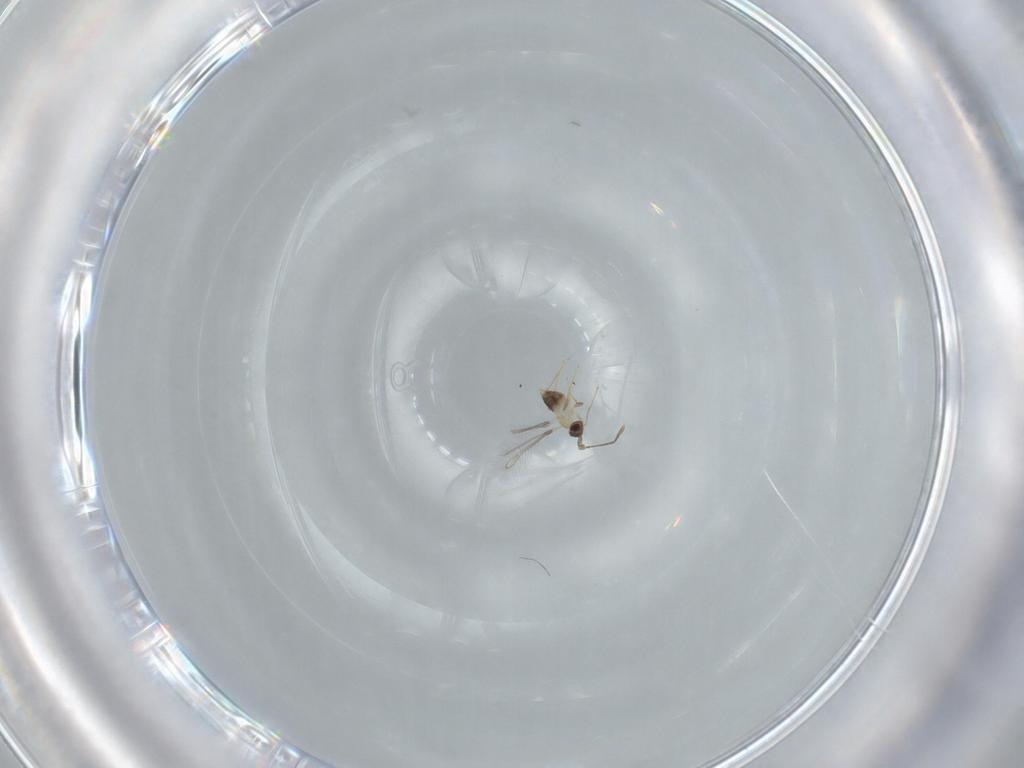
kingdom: Animalia
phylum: Arthropoda
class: Insecta
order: Hymenoptera
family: Mymaridae
